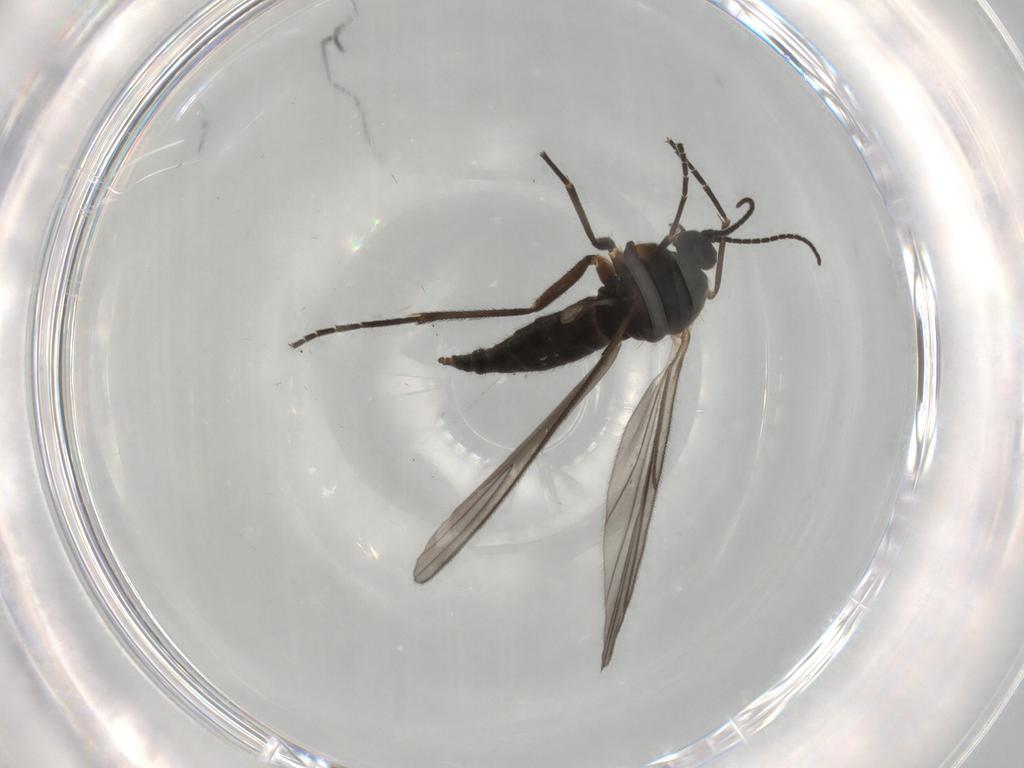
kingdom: Animalia
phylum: Arthropoda
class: Insecta
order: Diptera
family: Sciaridae
